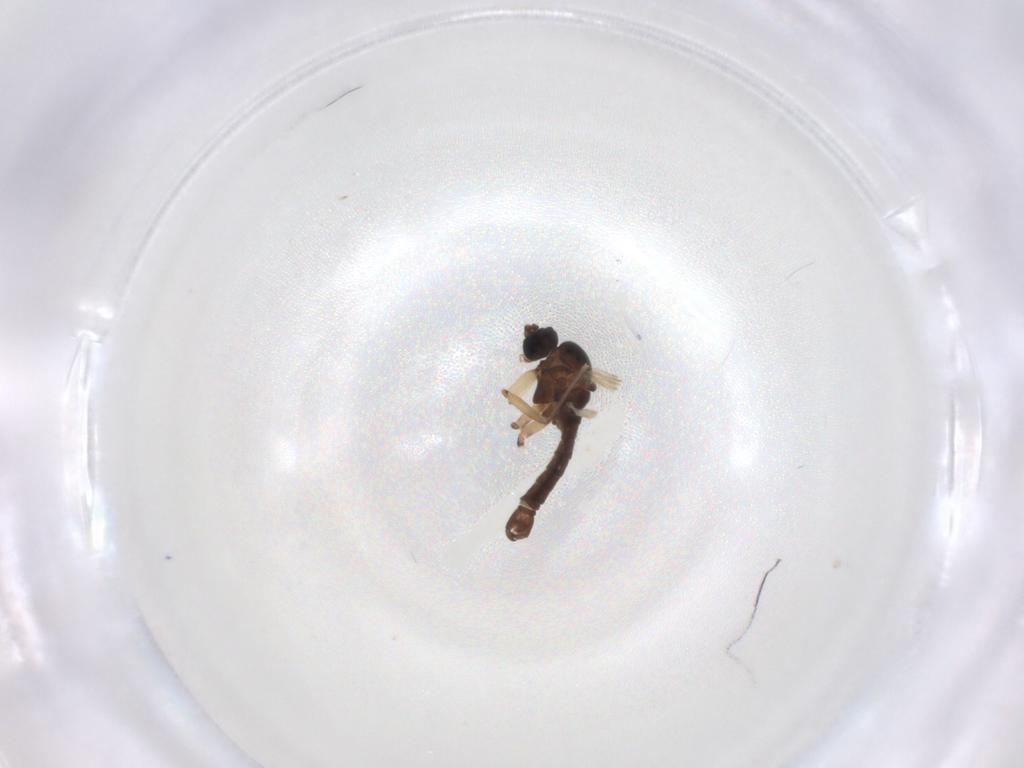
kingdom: Animalia
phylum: Arthropoda
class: Insecta
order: Diptera
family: Sciaridae
